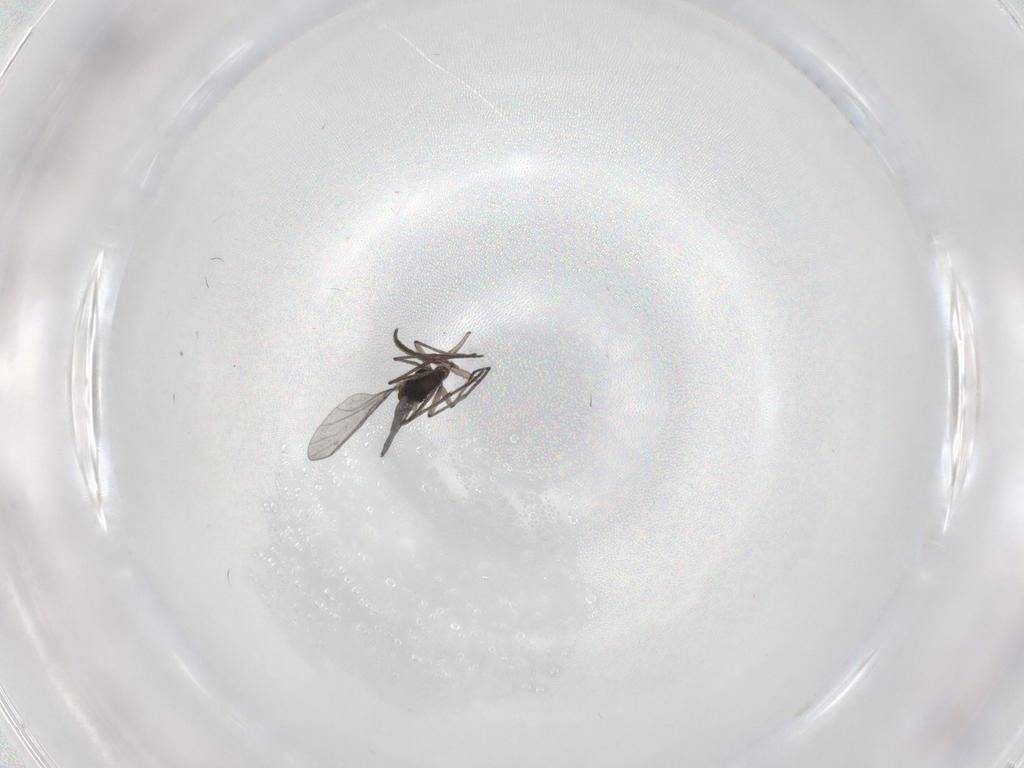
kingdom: Animalia
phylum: Arthropoda
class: Insecta
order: Diptera
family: Sciaridae
